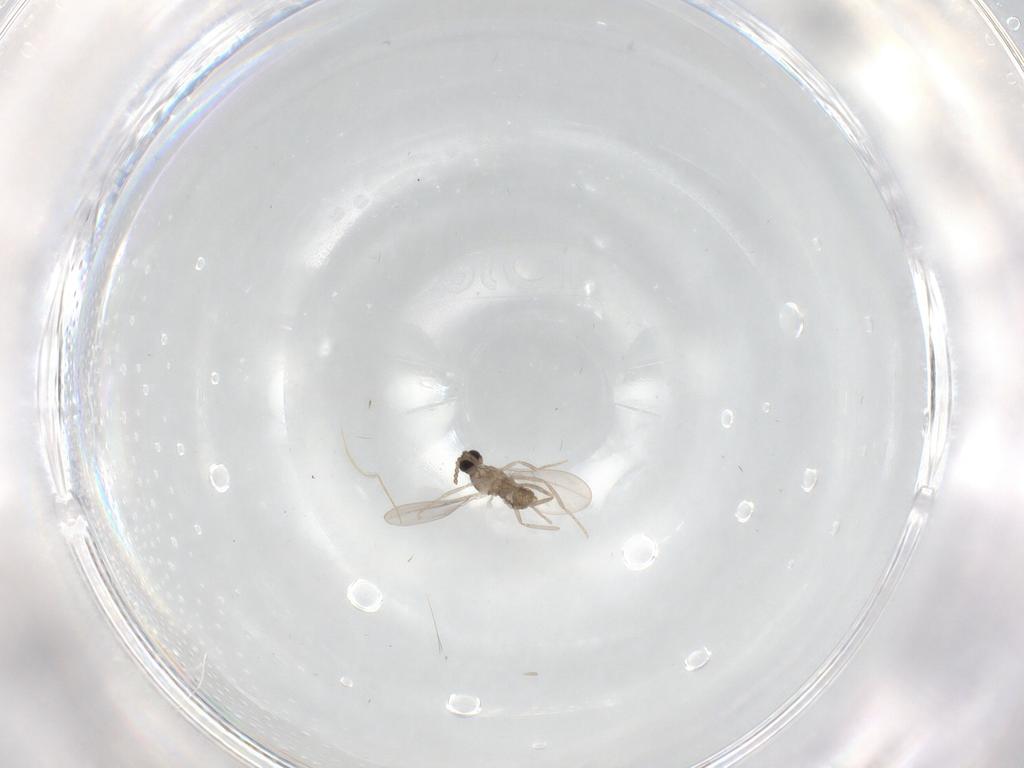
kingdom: Animalia
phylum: Arthropoda
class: Insecta
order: Diptera
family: Cecidomyiidae
